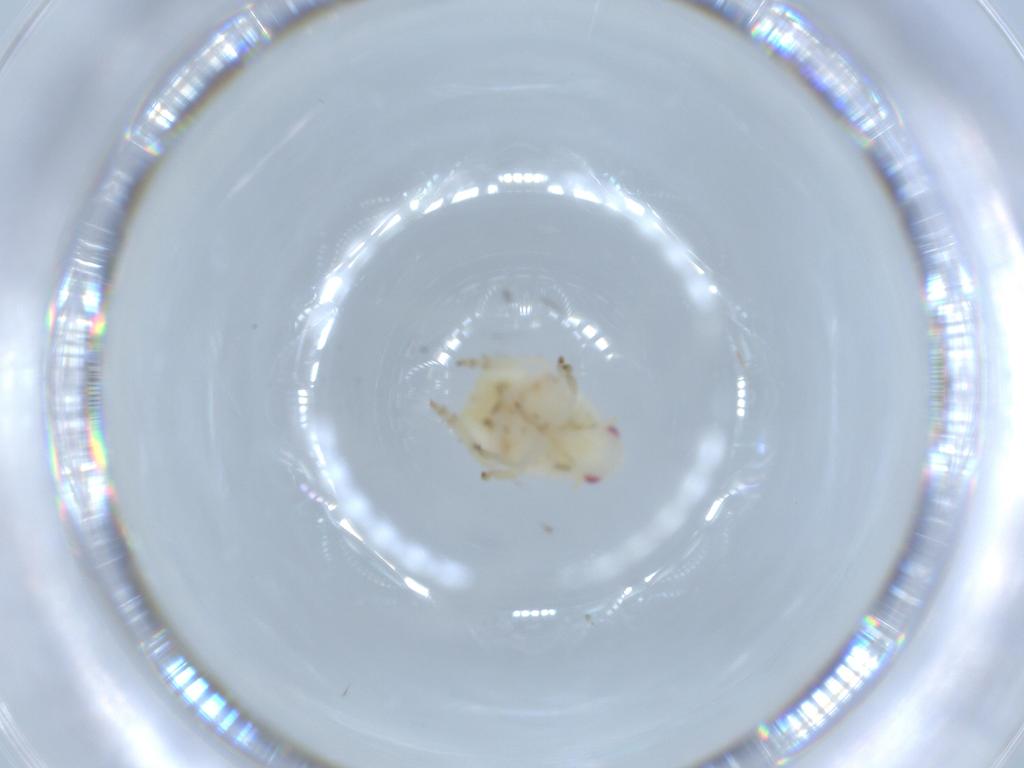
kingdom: Animalia
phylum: Arthropoda
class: Insecta
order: Hemiptera
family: Flatidae
